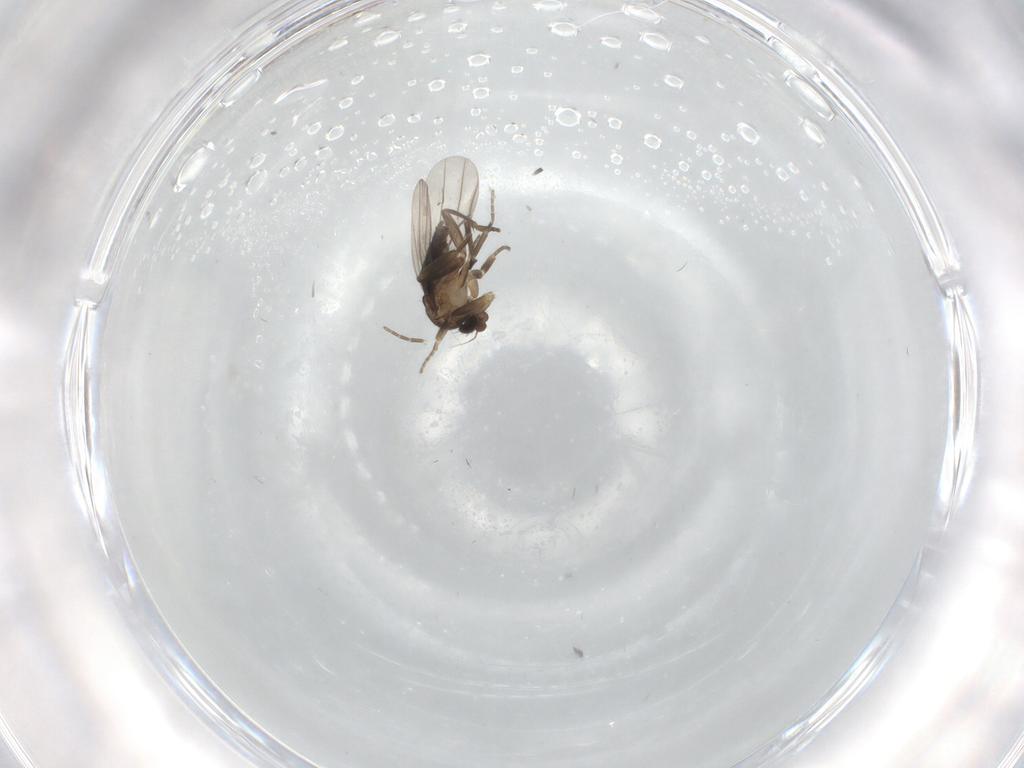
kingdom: Animalia
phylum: Arthropoda
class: Insecta
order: Diptera
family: Phoridae
